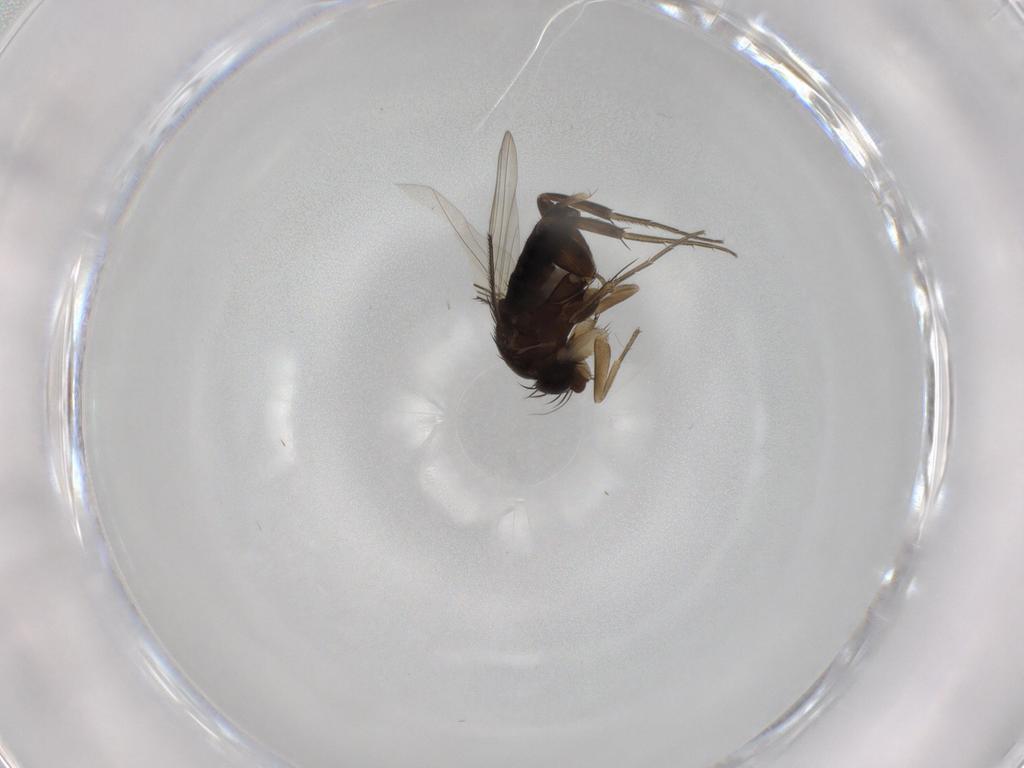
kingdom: Animalia
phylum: Arthropoda
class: Insecta
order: Diptera
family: Phoridae
